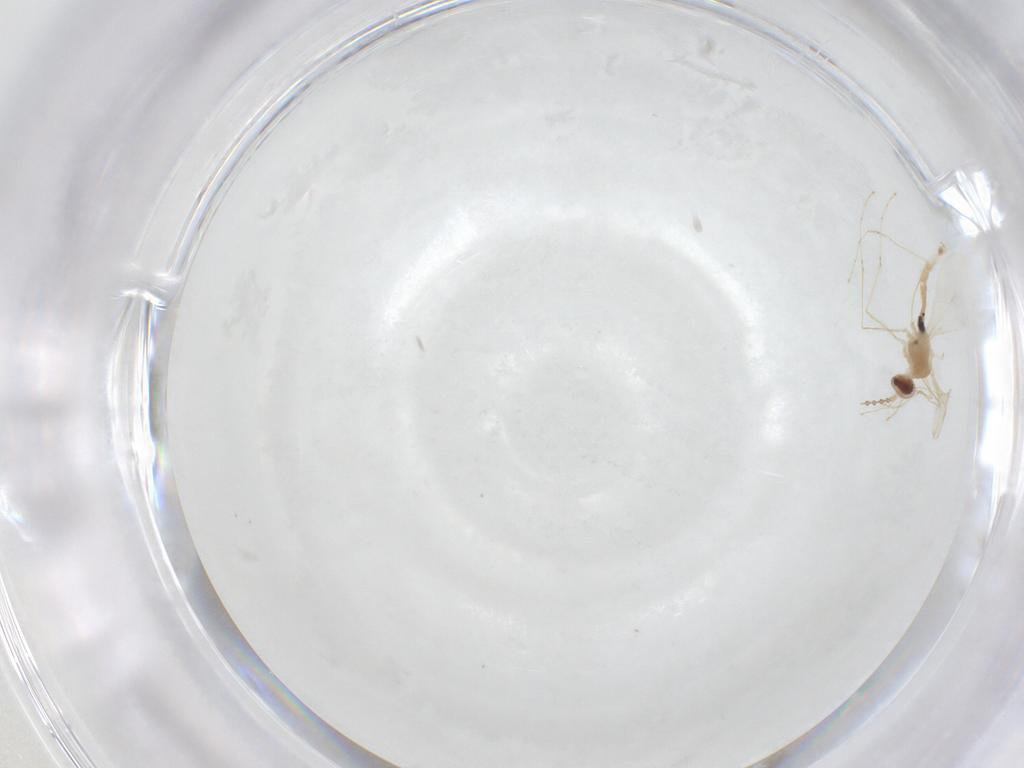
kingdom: Animalia
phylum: Arthropoda
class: Insecta
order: Diptera
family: Cecidomyiidae
